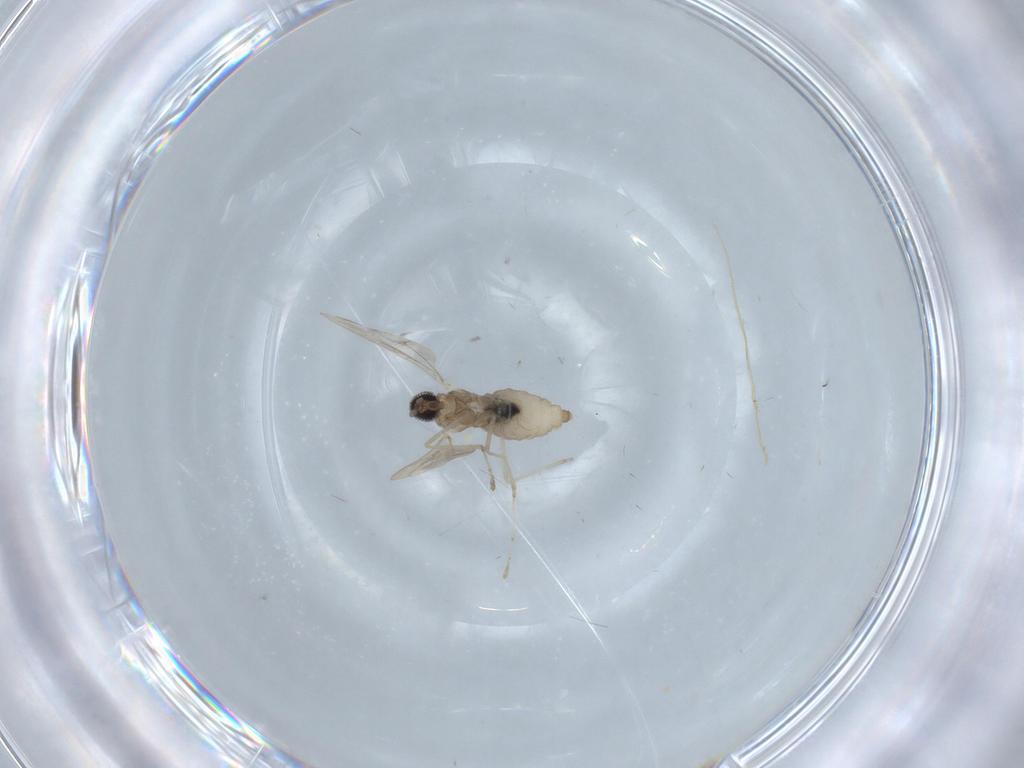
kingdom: Animalia
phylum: Arthropoda
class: Insecta
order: Diptera
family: Cecidomyiidae
